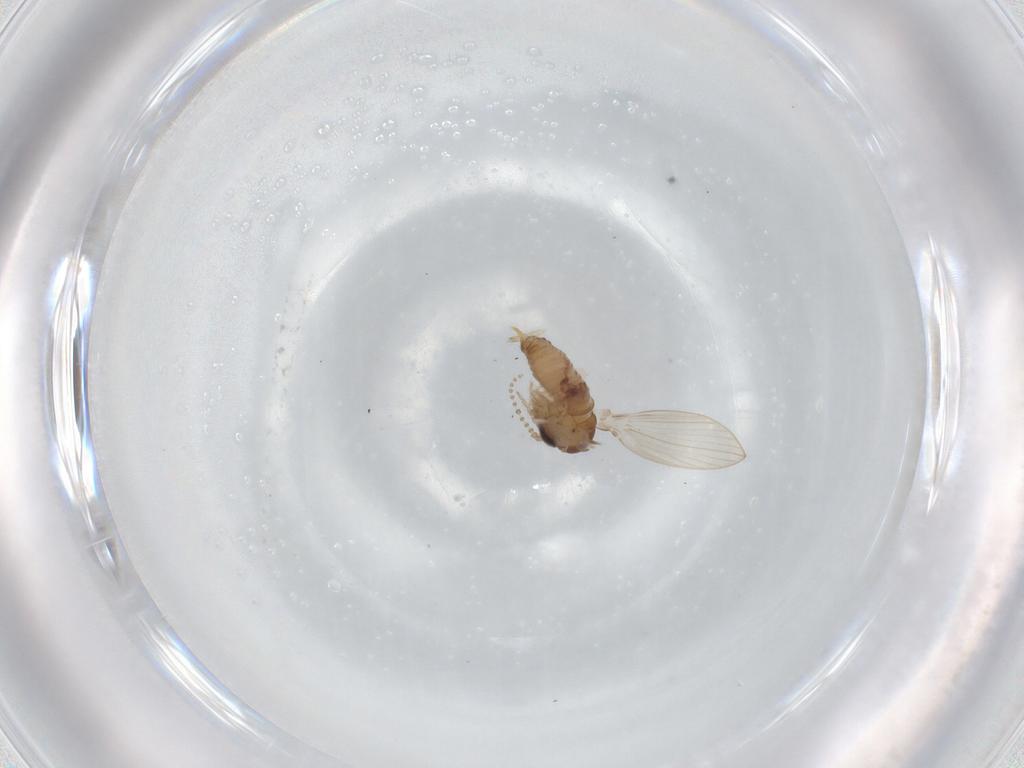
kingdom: Animalia
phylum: Arthropoda
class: Insecta
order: Diptera
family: Psychodidae
